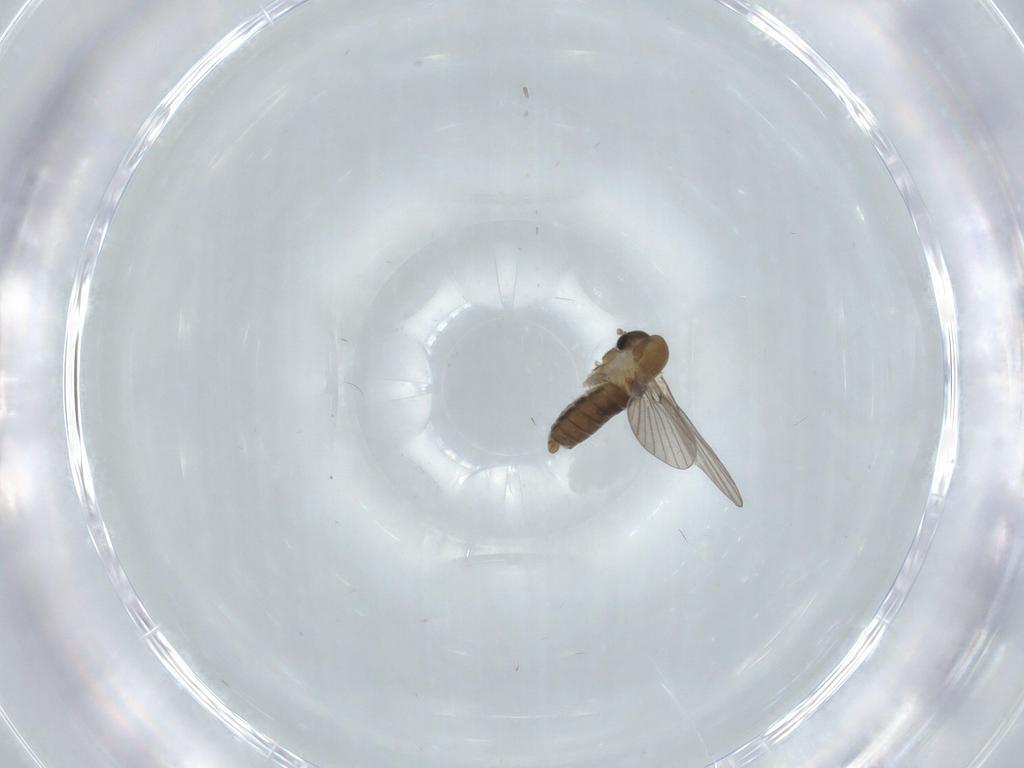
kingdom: Animalia
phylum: Arthropoda
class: Insecta
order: Diptera
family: Psychodidae
